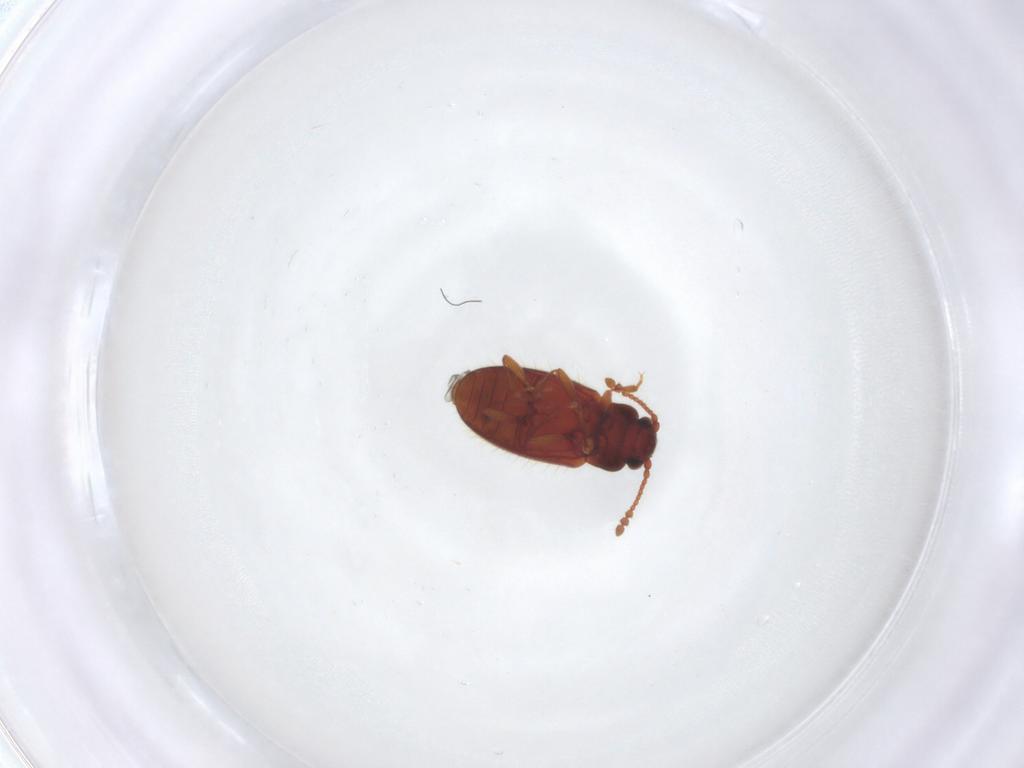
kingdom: Animalia
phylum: Arthropoda
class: Insecta
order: Coleoptera
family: Cryptophagidae
